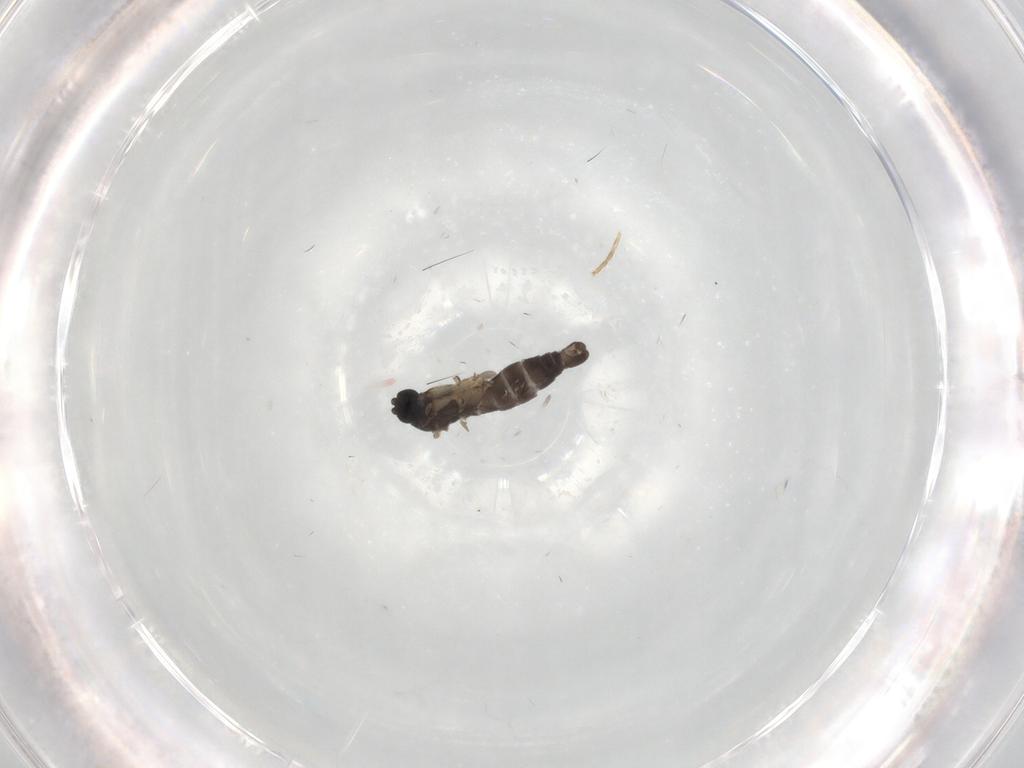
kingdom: Animalia
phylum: Arthropoda
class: Insecta
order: Diptera
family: Sciaridae
